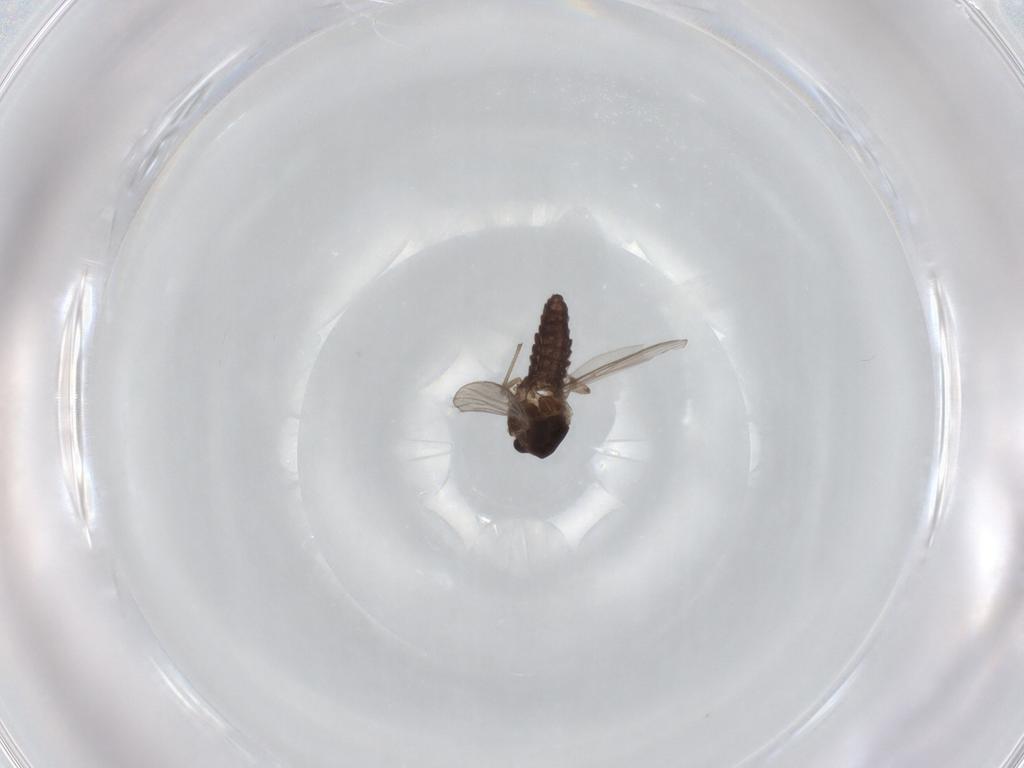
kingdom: Animalia
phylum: Arthropoda
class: Insecta
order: Diptera
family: Chironomidae
